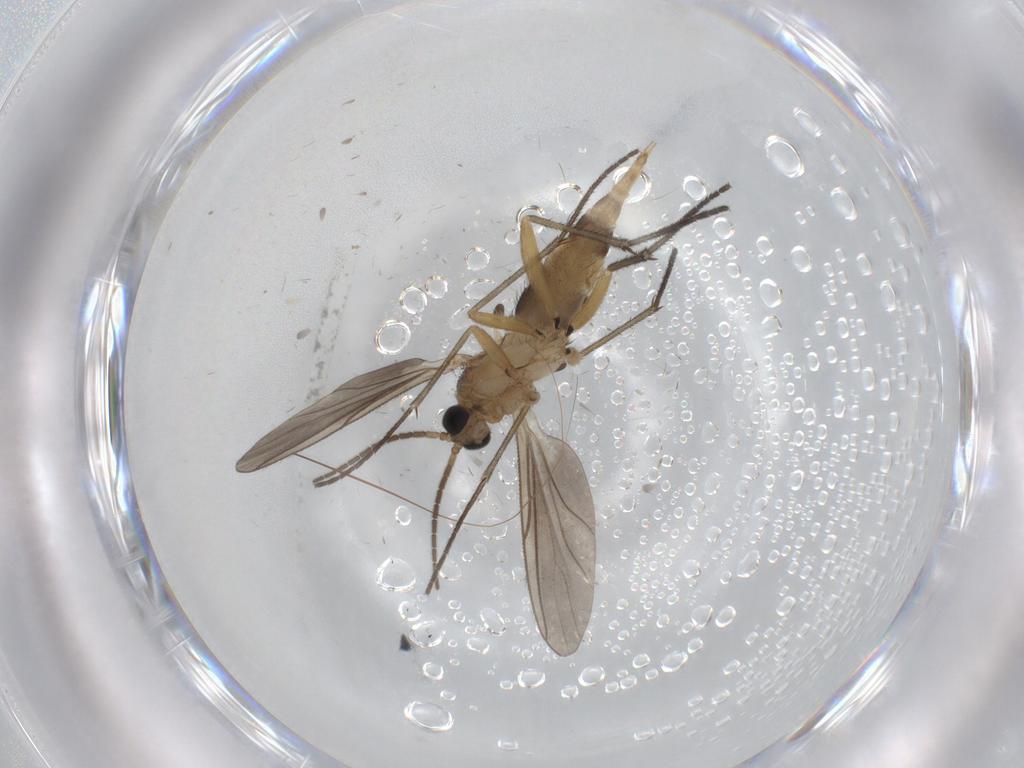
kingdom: Animalia
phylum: Arthropoda
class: Insecta
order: Diptera
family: Sciaridae
